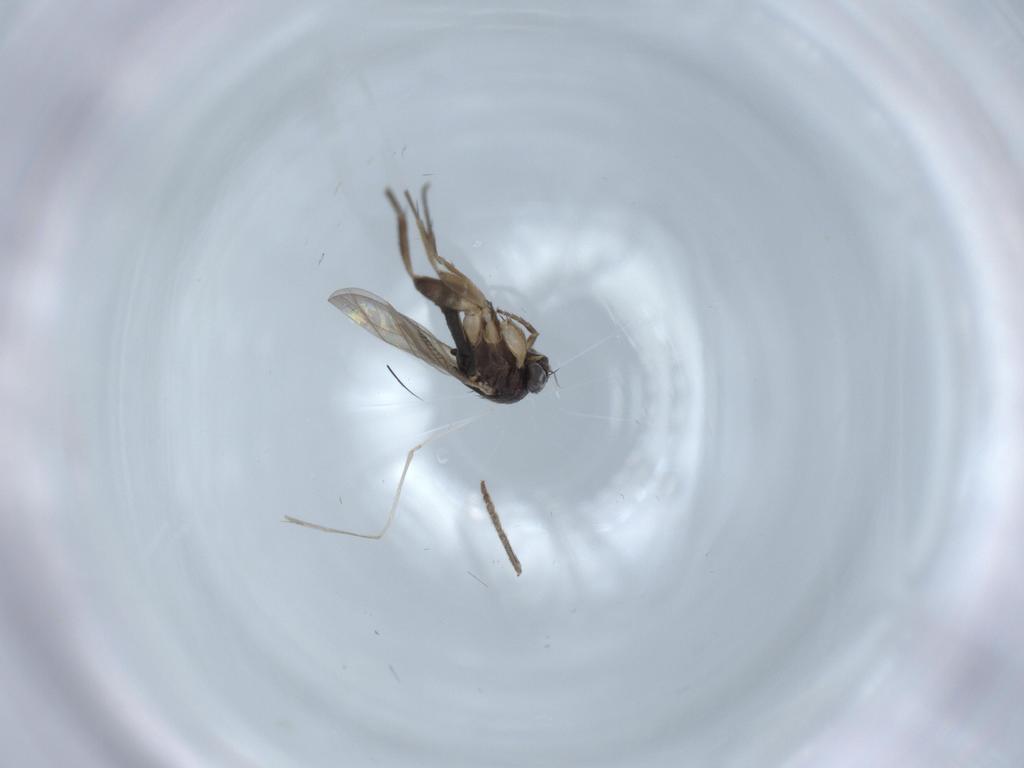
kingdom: Animalia
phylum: Arthropoda
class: Insecta
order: Diptera
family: Phoridae
